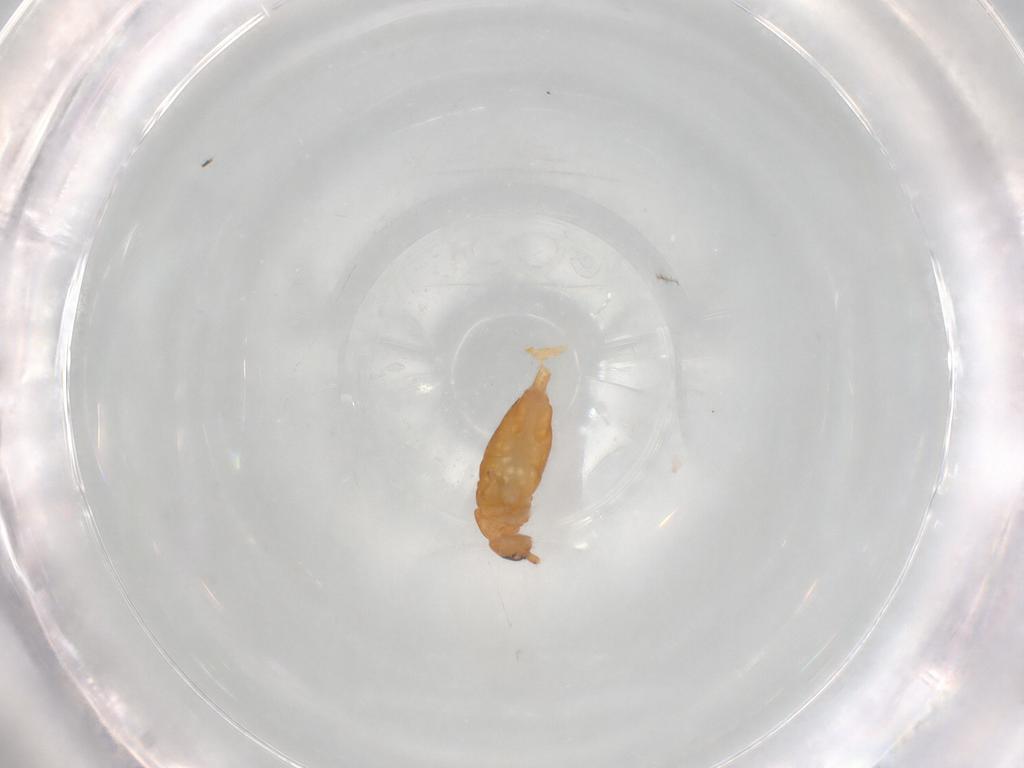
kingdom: Animalia
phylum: Arthropoda
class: Collembola
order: Entomobryomorpha
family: Entomobryidae
